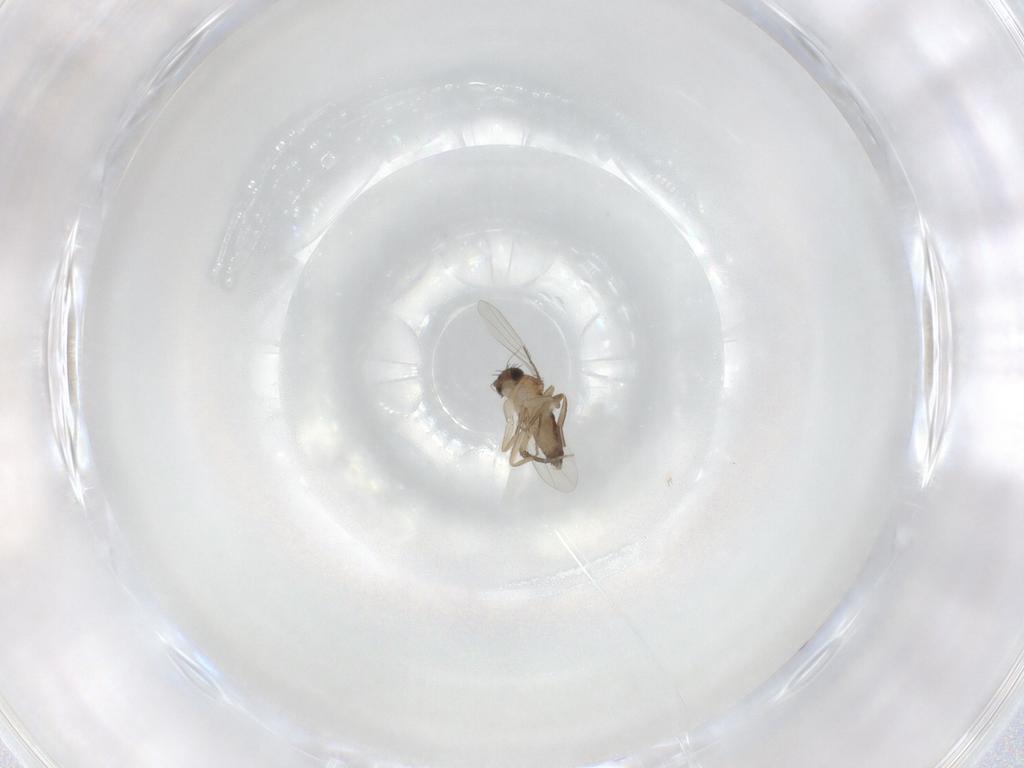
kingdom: Animalia
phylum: Arthropoda
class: Insecta
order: Diptera
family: Phoridae
